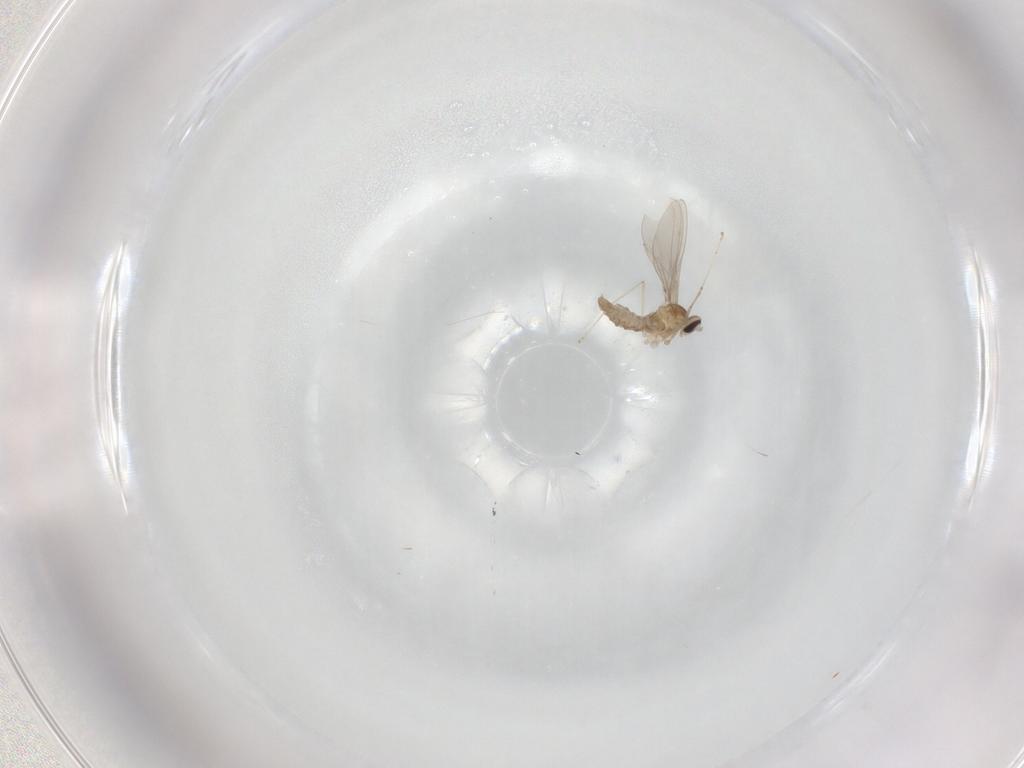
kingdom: Animalia
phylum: Arthropoda
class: Insecta
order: Diptera
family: Cecidomyiidae
